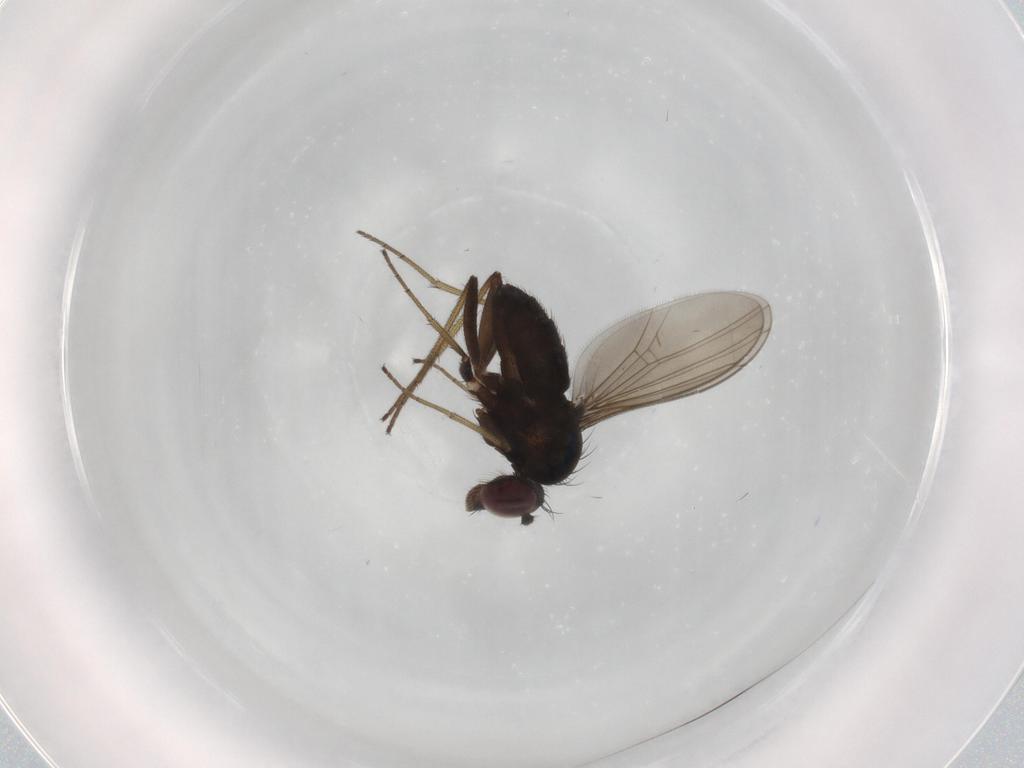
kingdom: Animalia
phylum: Arthropoda
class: Insecta
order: Diptera
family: Dolichopodidae
